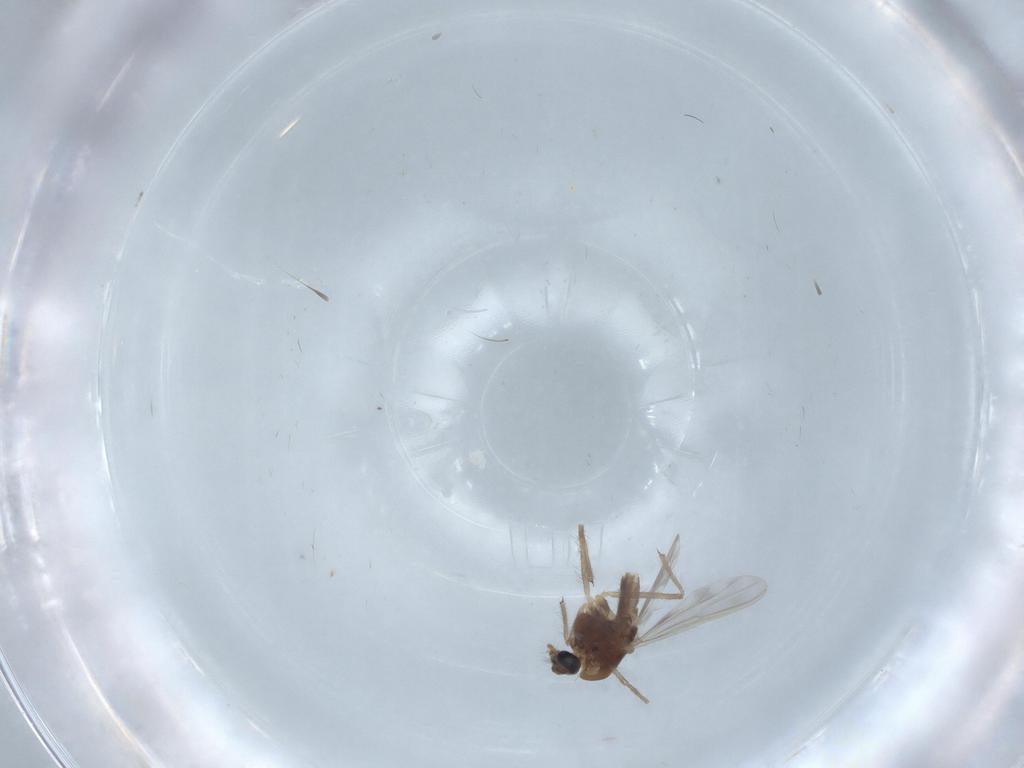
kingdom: Animalia
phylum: Arthropoda
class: Insecta
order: Diptera
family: Chironomidae
